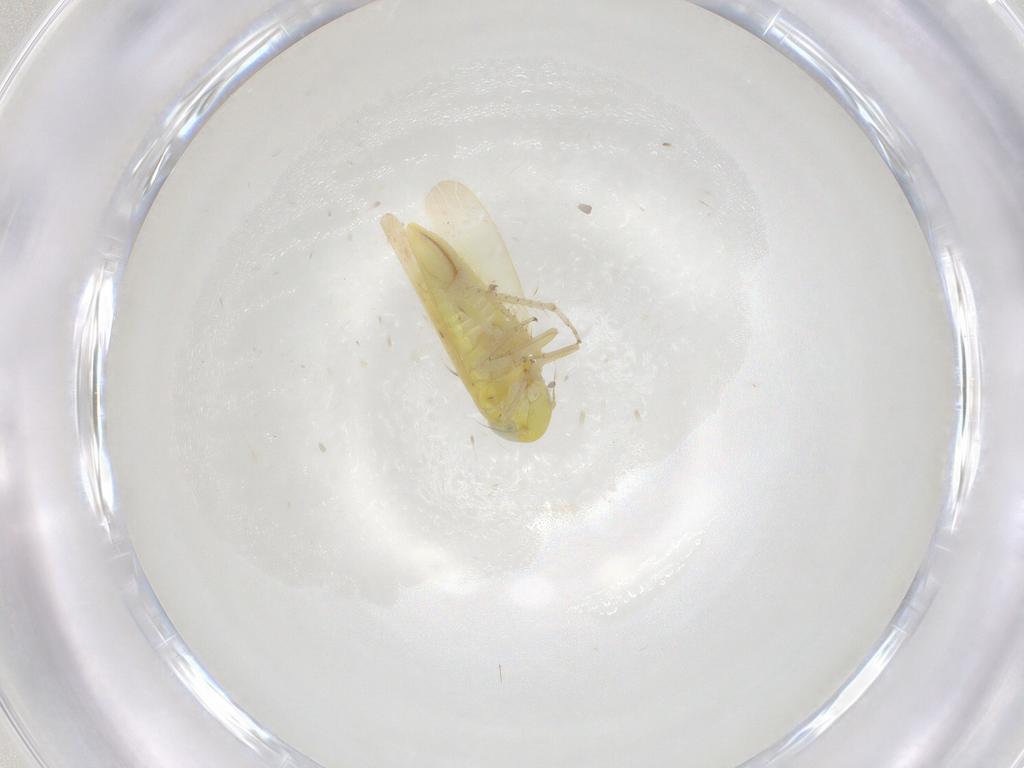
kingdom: Animalia
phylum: Arthropoda
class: Insecta
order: Hemiptera
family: Cicadellidae
